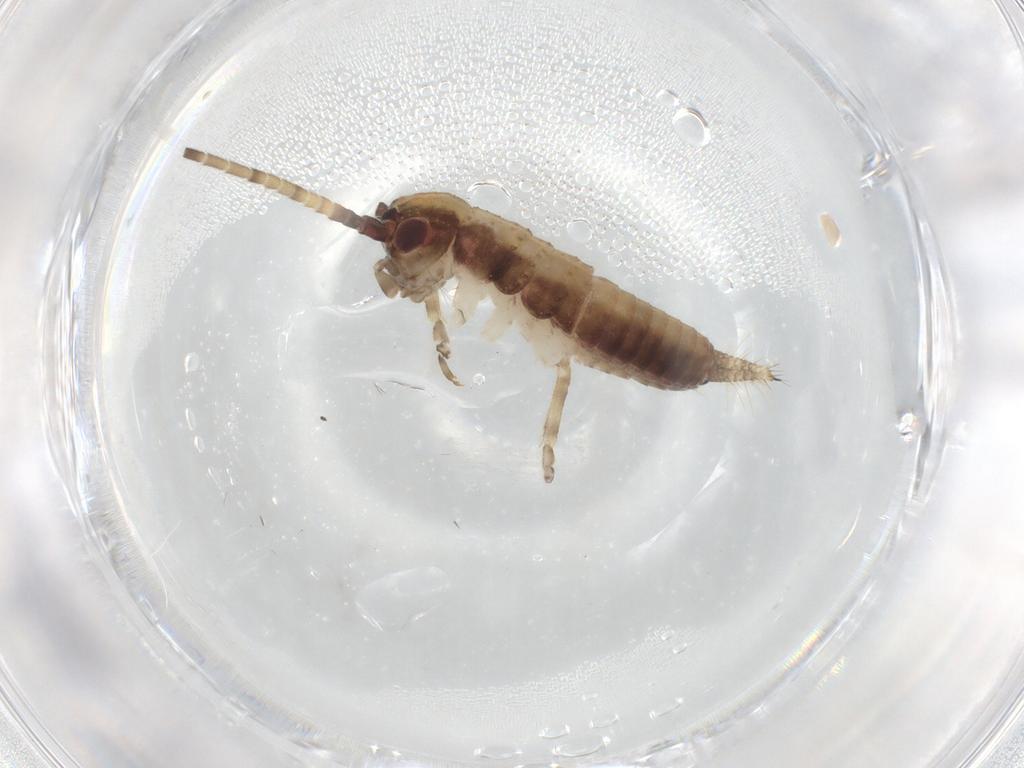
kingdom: Animalia
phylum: Arthropoda
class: Insecta
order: Orthoptera
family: Gryllidae
